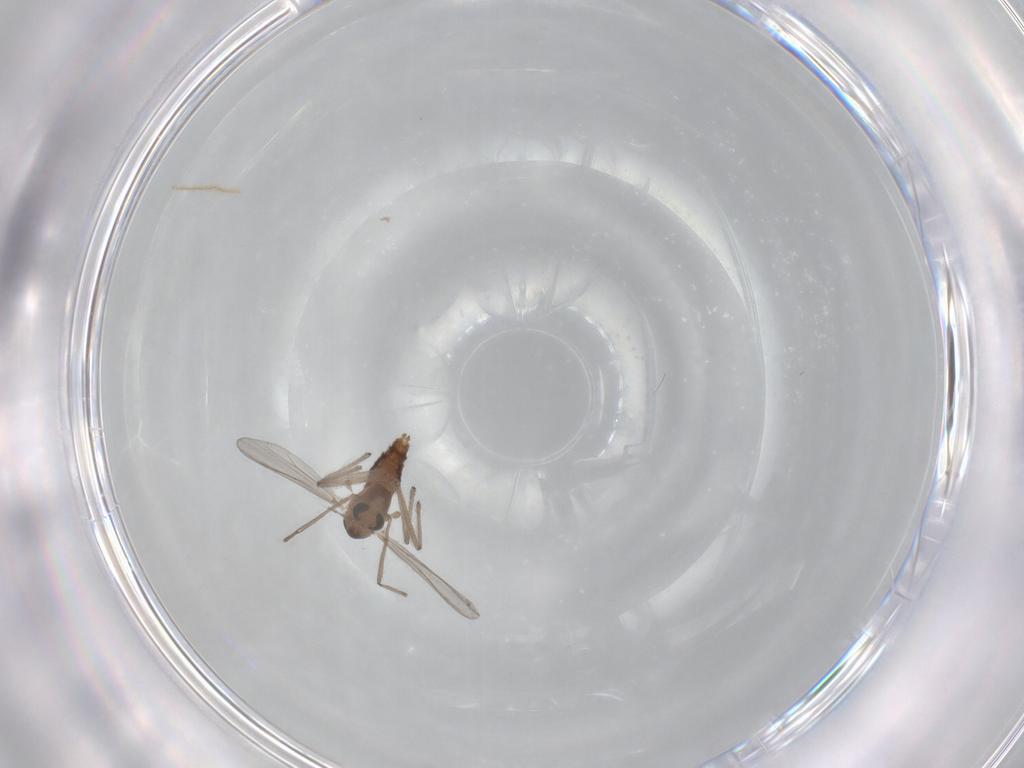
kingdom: Animalia
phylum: Arthropoda
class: Insecta
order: Diptera
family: Chironomidae
